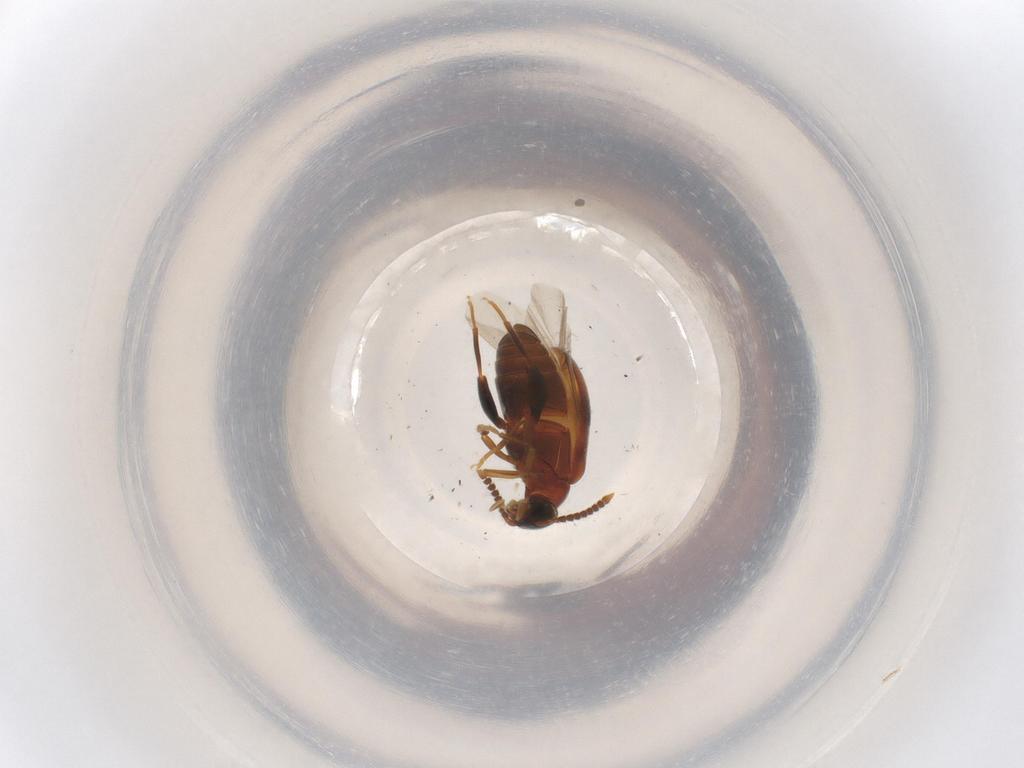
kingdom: Animalia
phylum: Arthropoda
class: Insecta
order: Coleoptera
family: Aderidae
